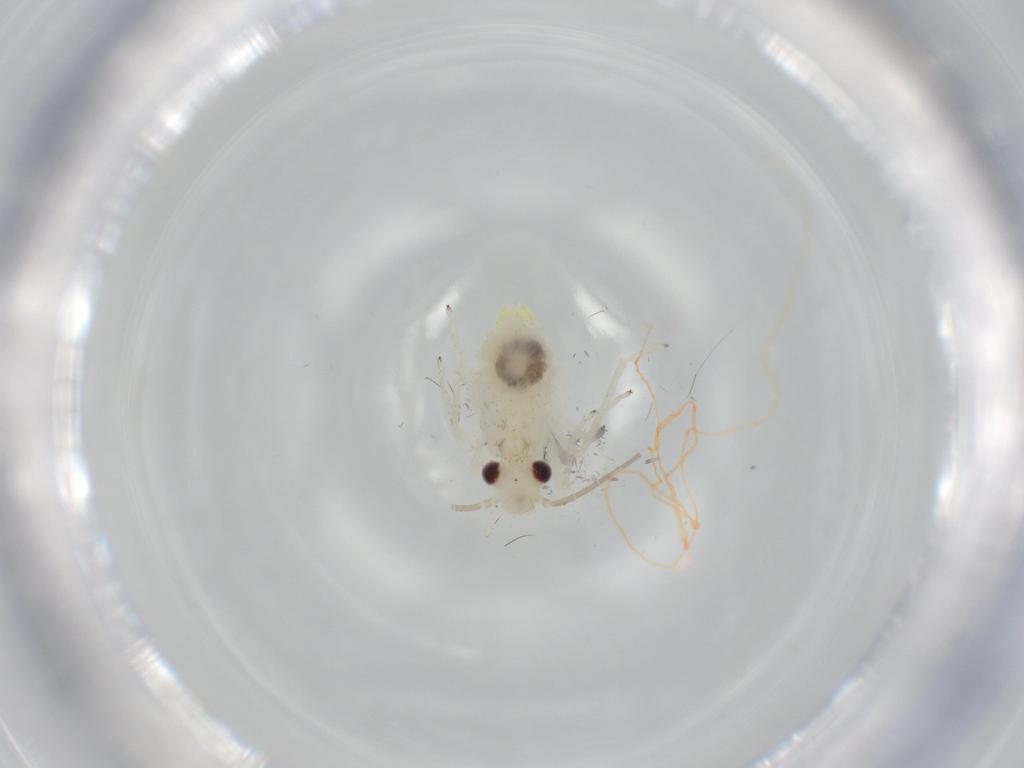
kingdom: Animalia
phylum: Arthropoda
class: Insecta
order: Psocodea
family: Caeciliusidae
